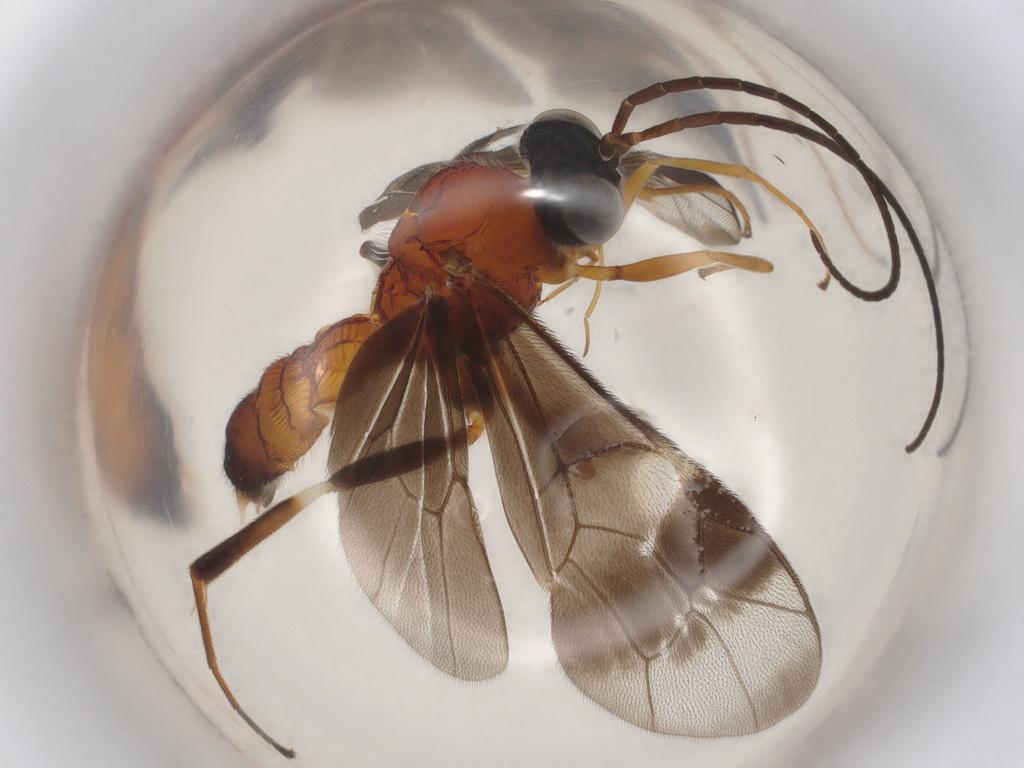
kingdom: Animalia
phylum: Arthropoda
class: Insecta
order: Hymenoptera
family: Ichneumonidae
